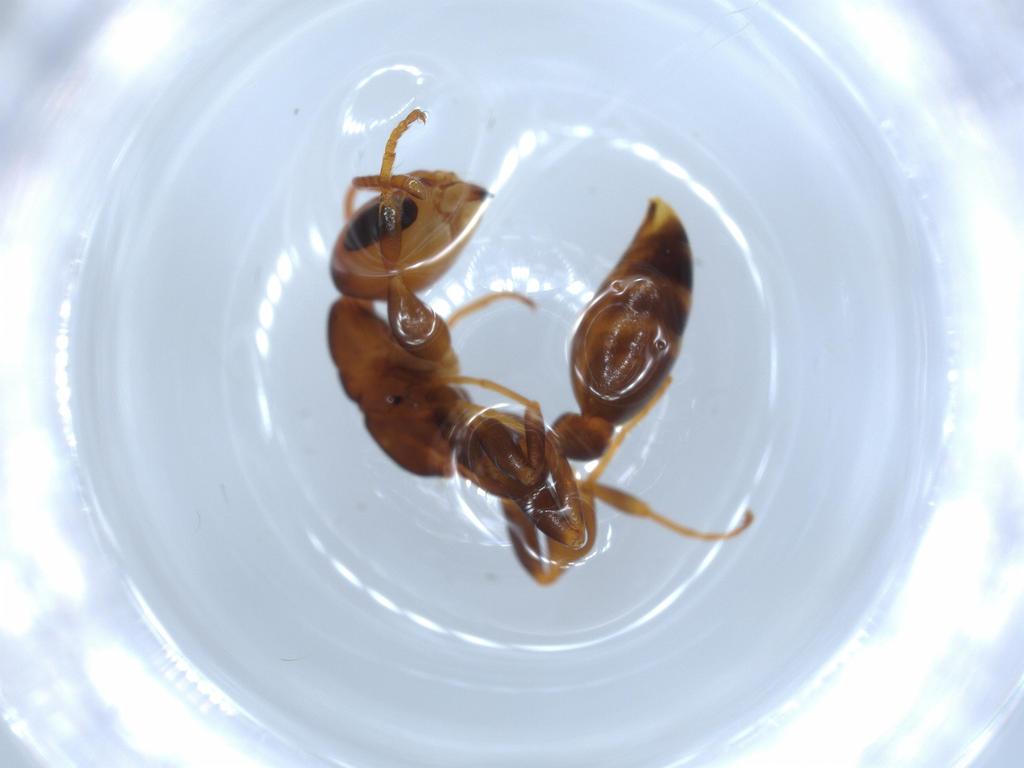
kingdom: Animalia
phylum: Arthropoda
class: Insecta
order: Hymenoptera
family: Formicidae
